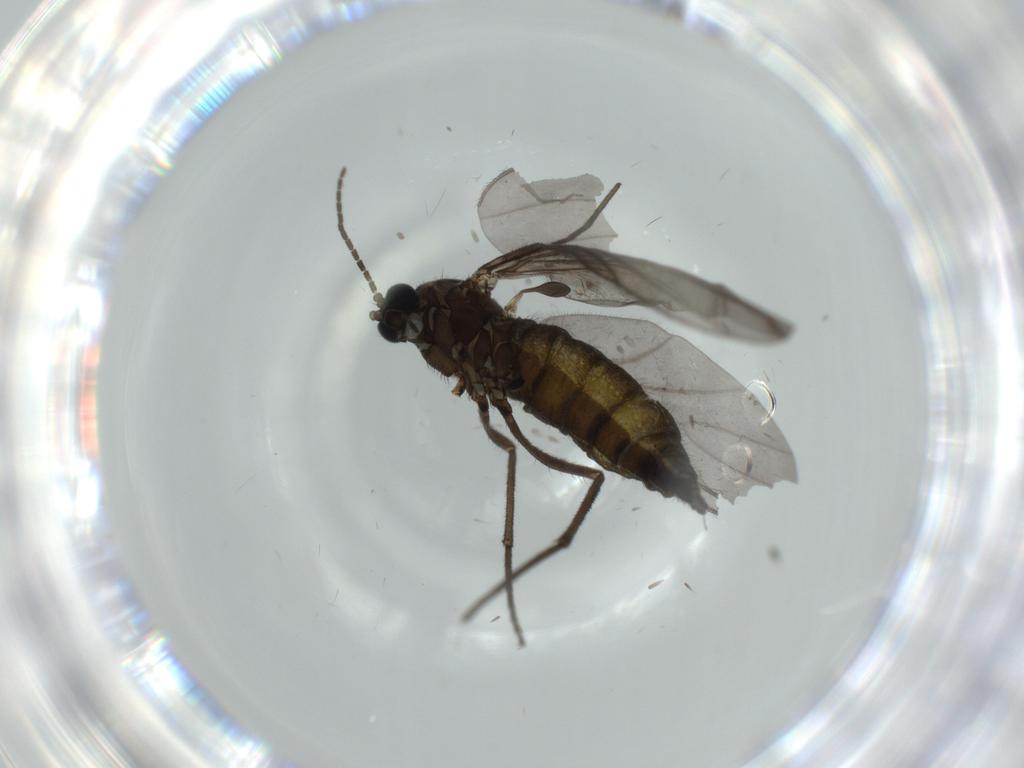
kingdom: Animalia
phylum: Arthropoda
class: Insecta
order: Diptera
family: Sciaridae
